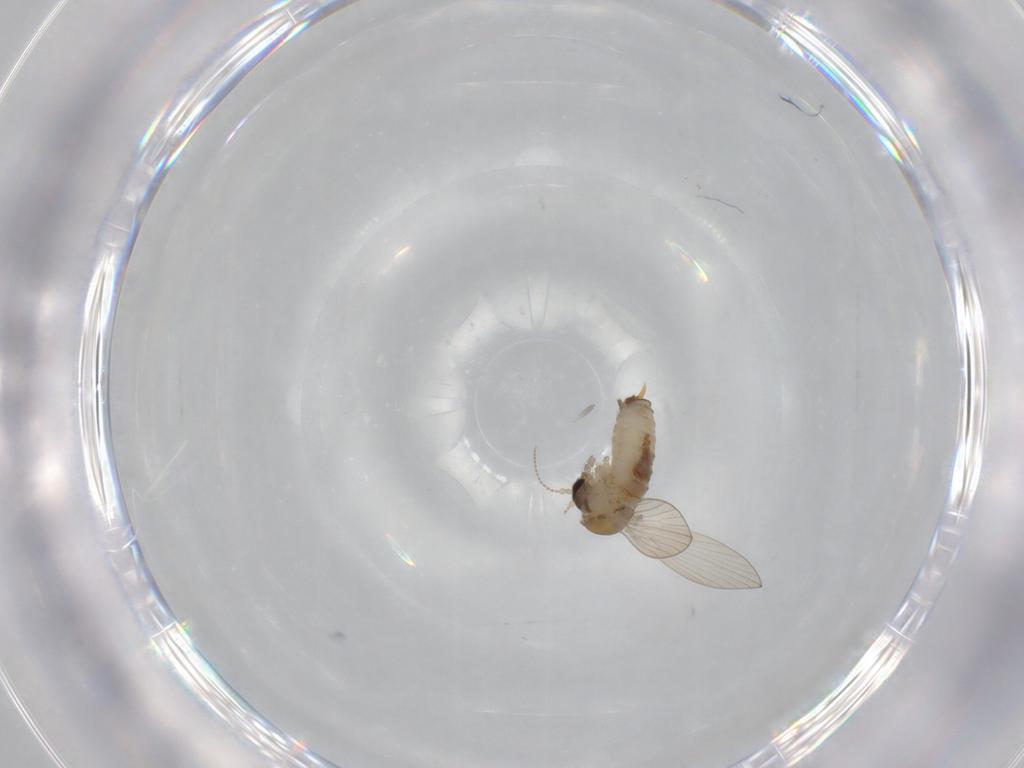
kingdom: Animalia
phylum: Arthropoda
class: Insecta
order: Diptera
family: Psychodidae
